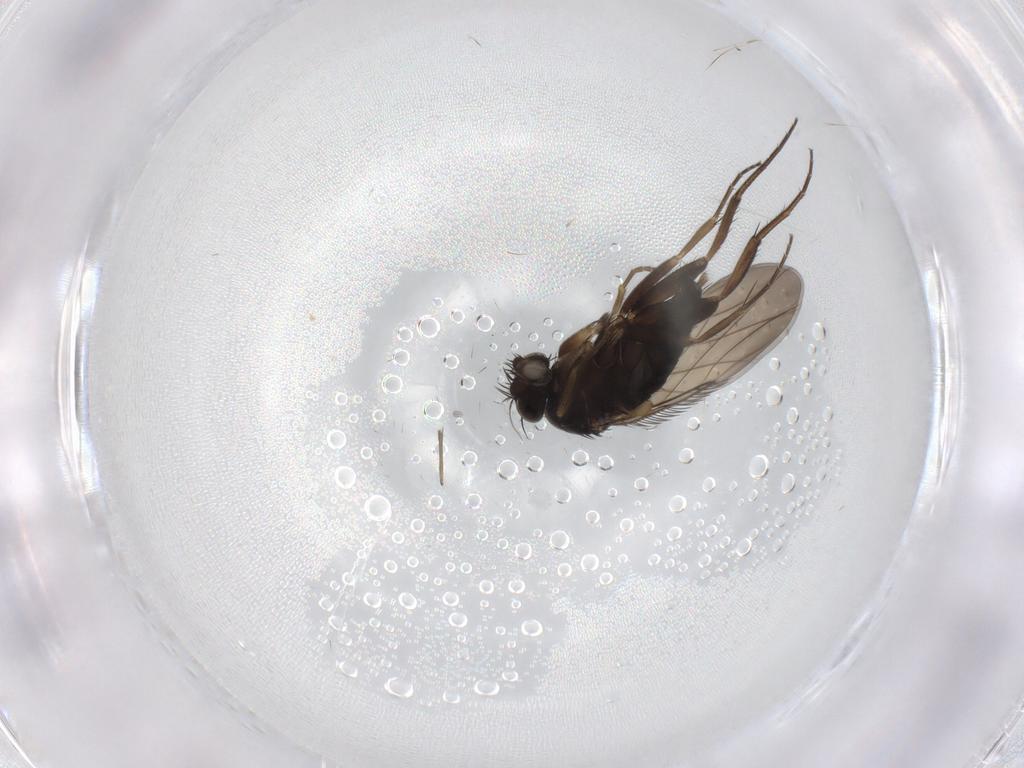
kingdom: Animalia
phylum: Arthropoda
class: Insecta
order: Diptera
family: Phoridae
